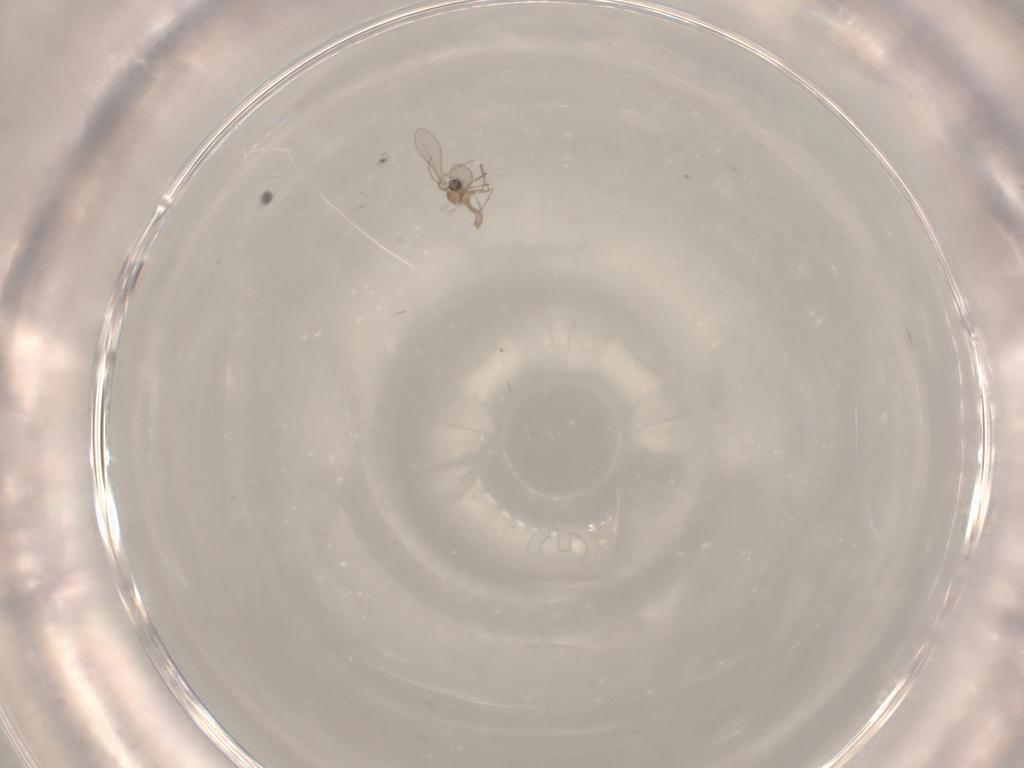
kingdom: Animalia
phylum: Arthropoda
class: Insecta
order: Diptera
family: Cecidomyiidae
